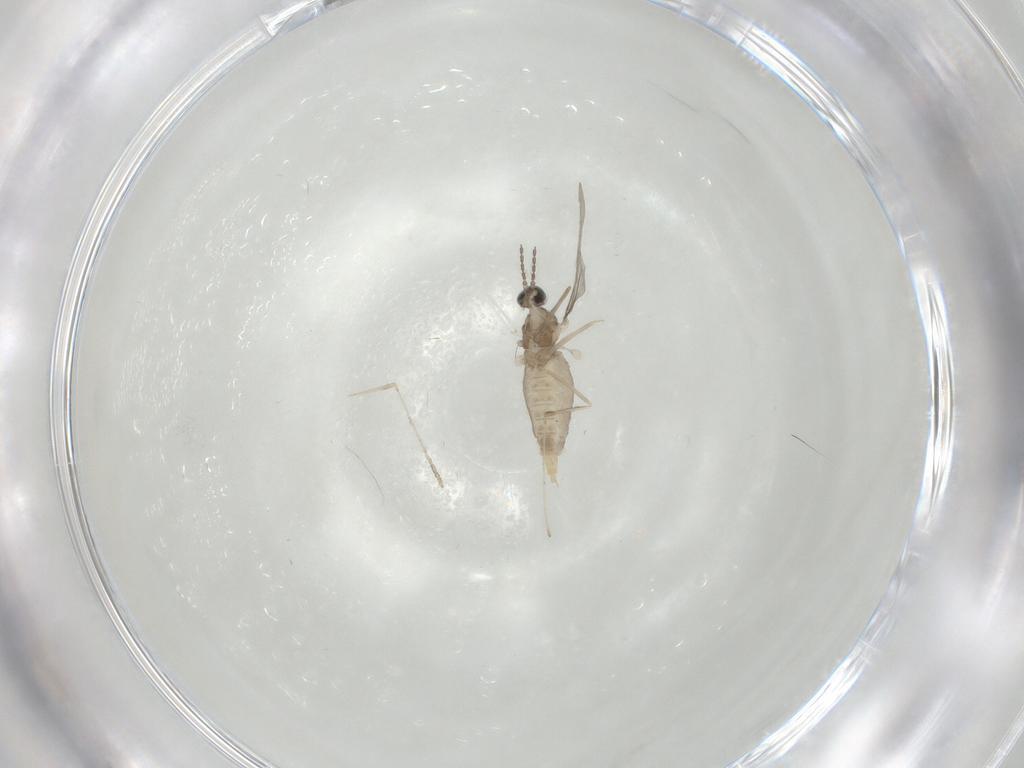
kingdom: Animalia
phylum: Arthropoda
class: Insecta
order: Diptera
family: Cecidomyiidae
